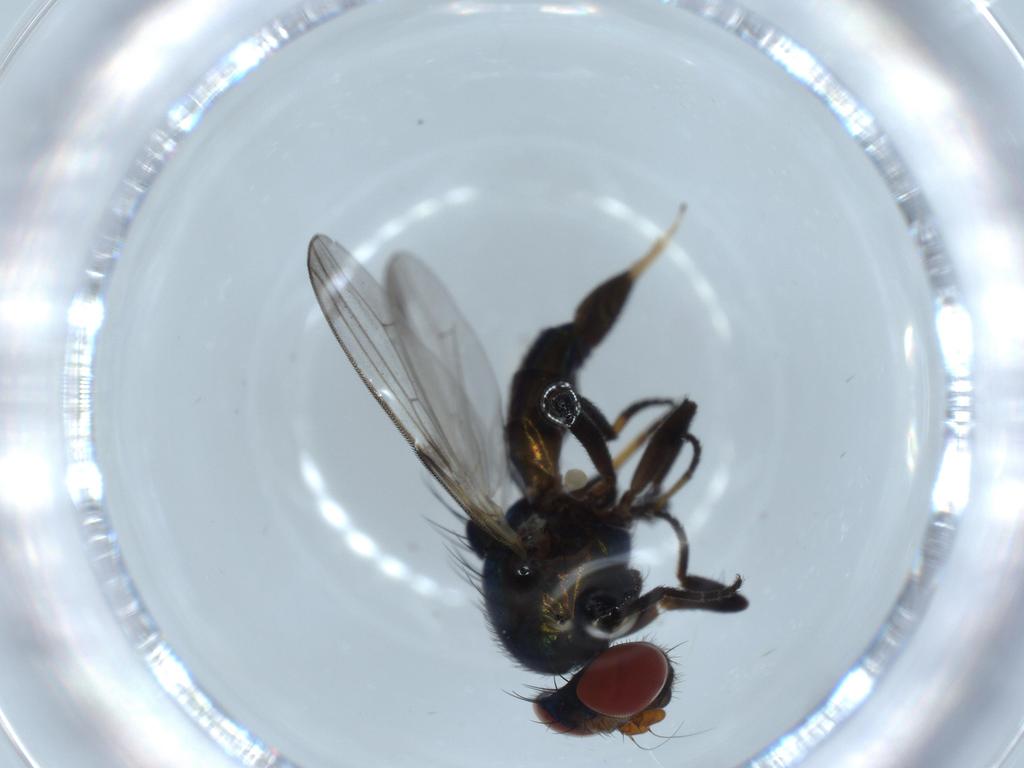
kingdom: Animalia
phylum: Arthropoda
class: Insecta
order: Diptera
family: Ulidiidae
